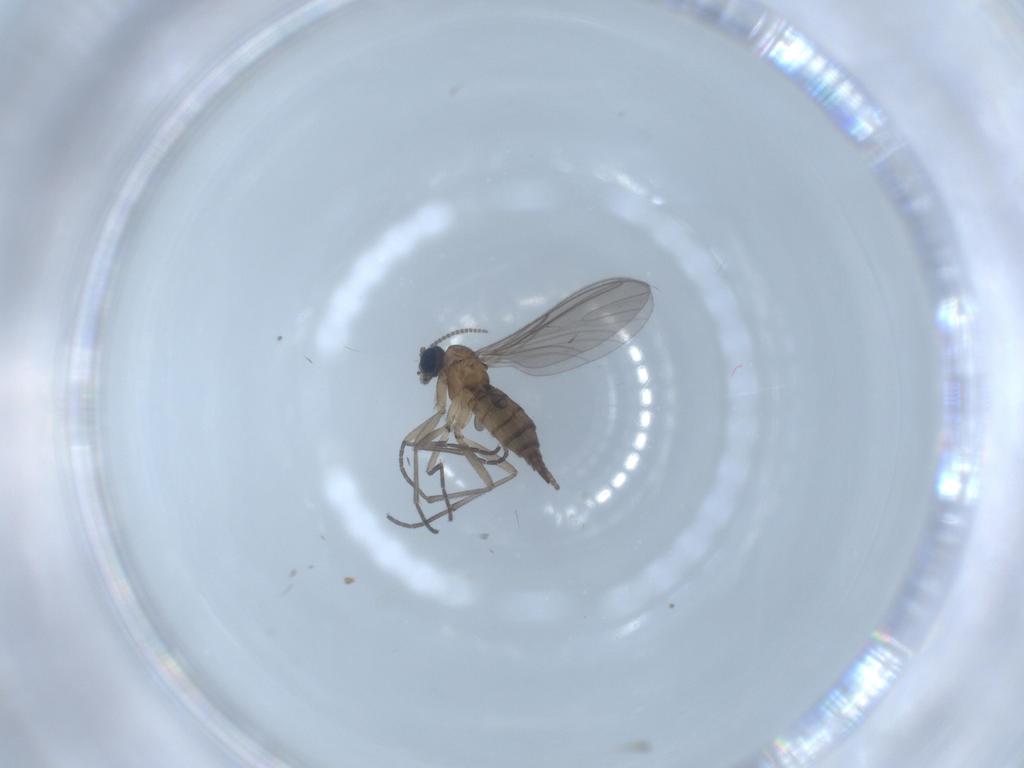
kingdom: Animalia
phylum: Arthropoda
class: Insecta
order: Diptera
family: Sciaridae
